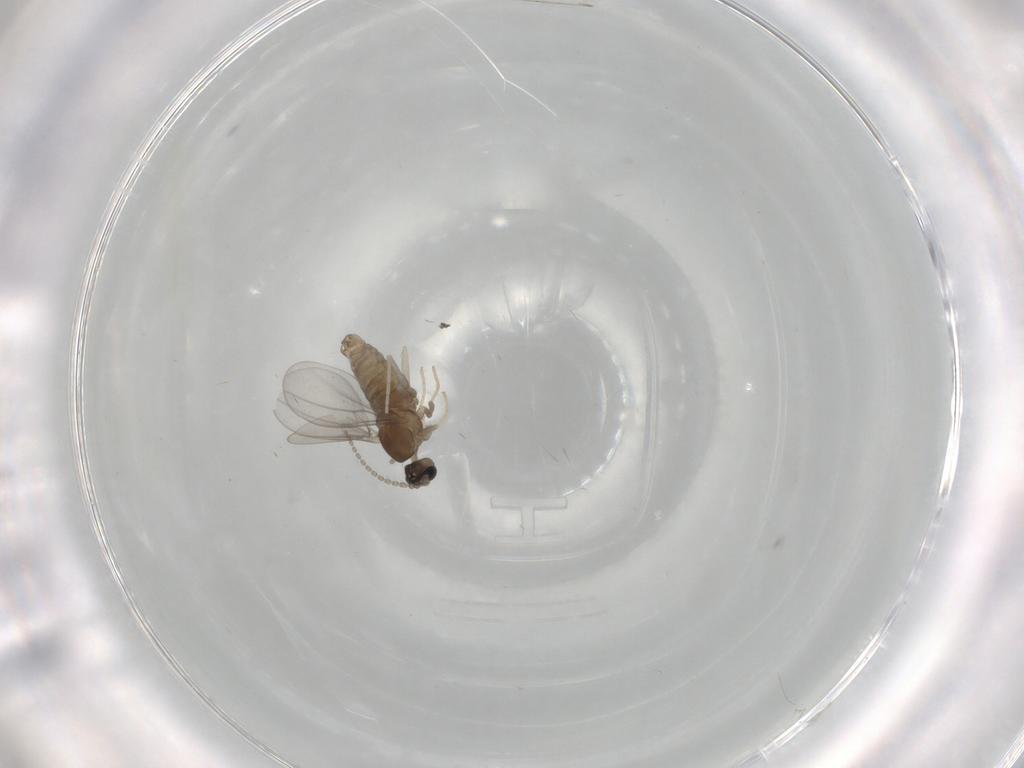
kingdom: Animalia
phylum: Arthropoda
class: Insecta
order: Diptera
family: Cecidomyiidae
